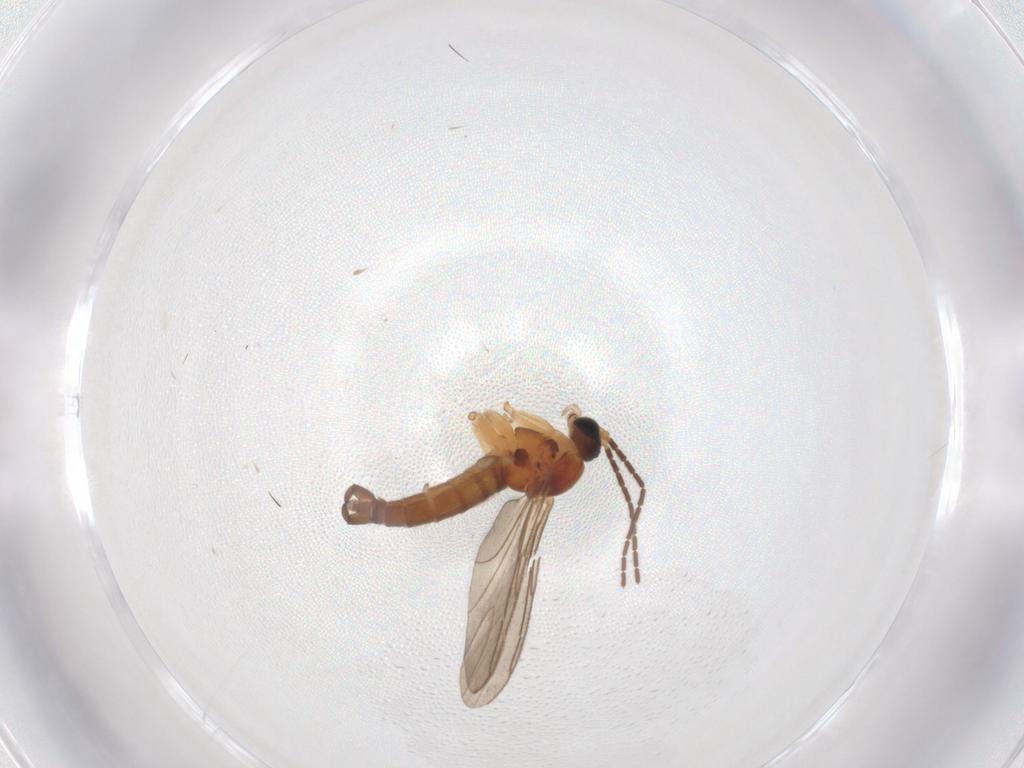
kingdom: Animalia
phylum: Arthropoda
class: Insecta
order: Diptera
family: Sciaridae
